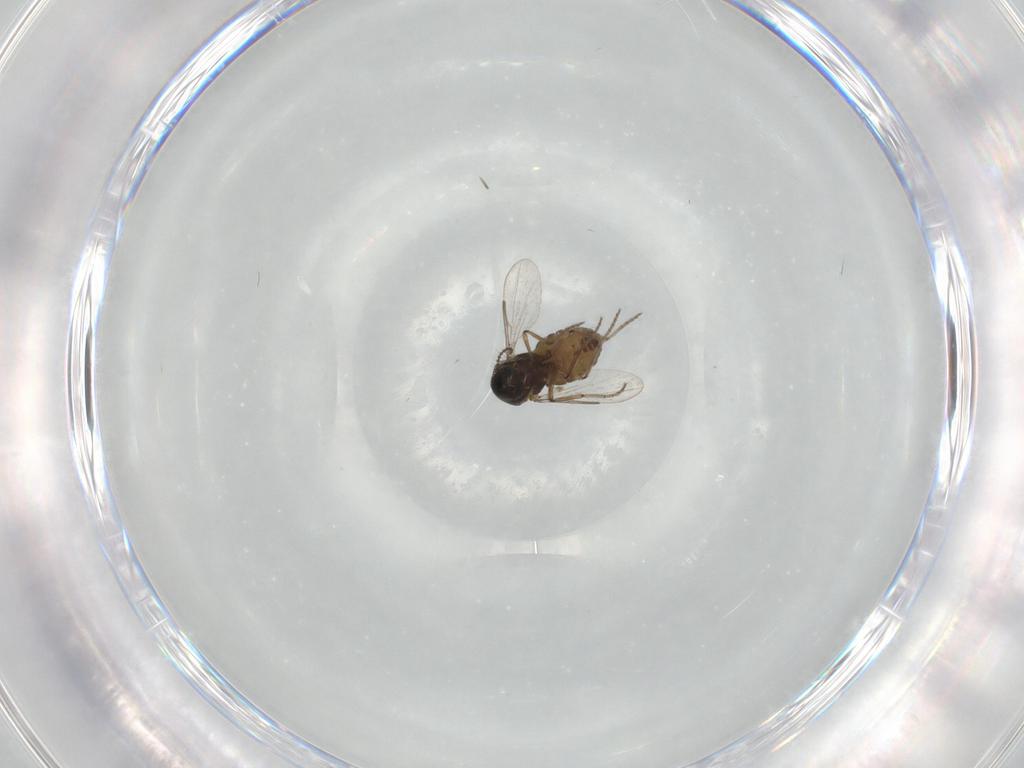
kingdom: Animalia
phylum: Arthropoda
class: Insecta
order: Diptera
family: Ceratopogonidae
